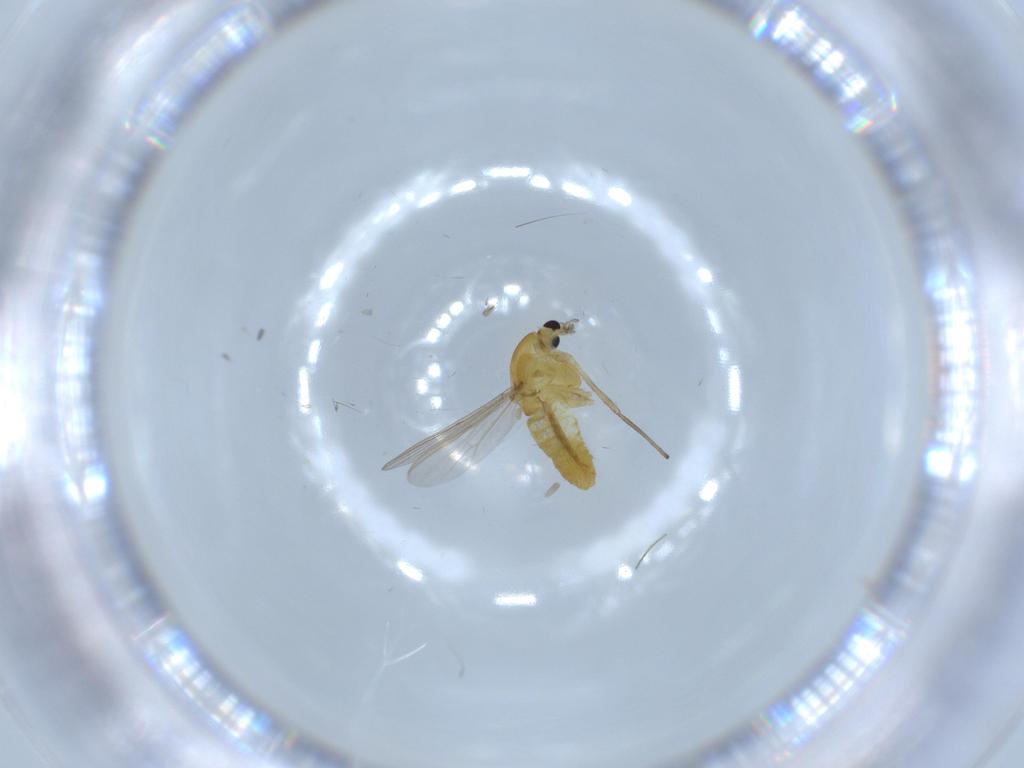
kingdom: Animalia
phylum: Arthropoda
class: Insecta
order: Diptera
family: Chironomidae
